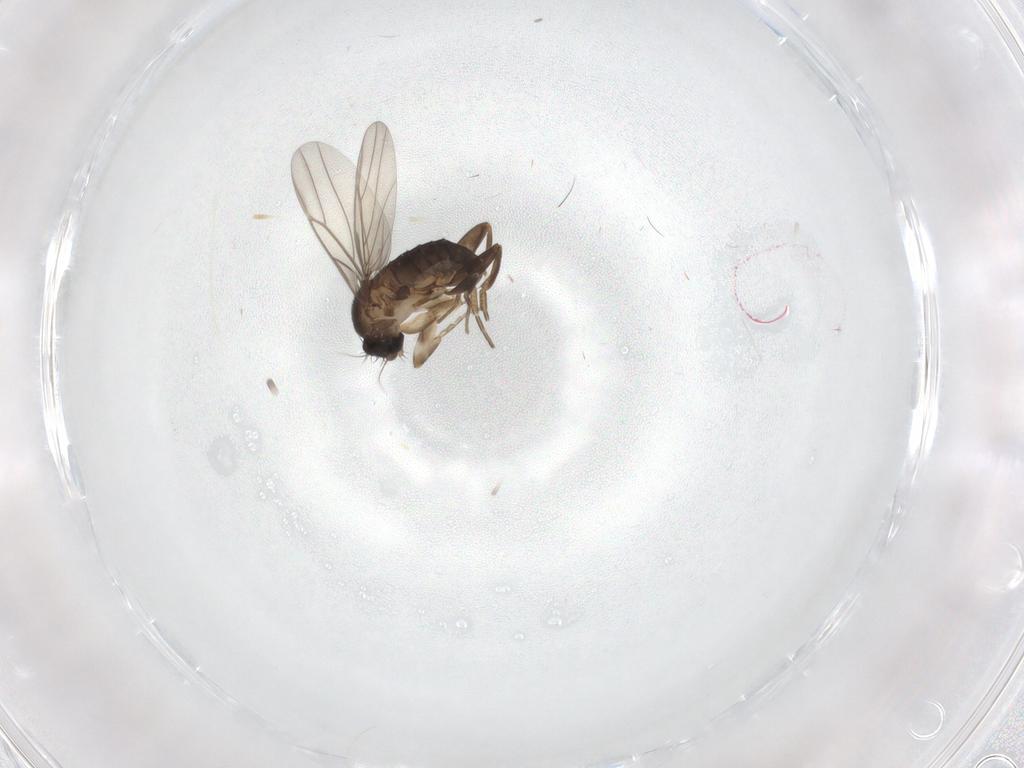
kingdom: Animalia
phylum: Arthropoda
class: Insecta
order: Diptera
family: Phoridae
